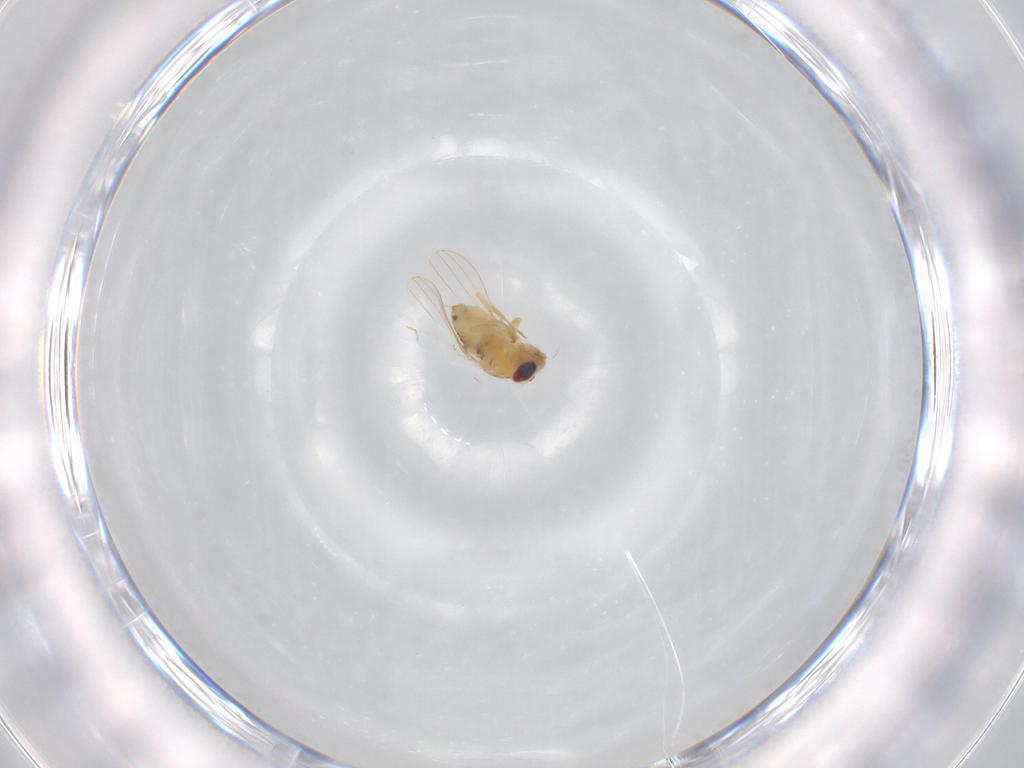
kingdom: Animalia
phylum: Arthropoda
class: Insecta
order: Diptera
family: Chyromyidae
